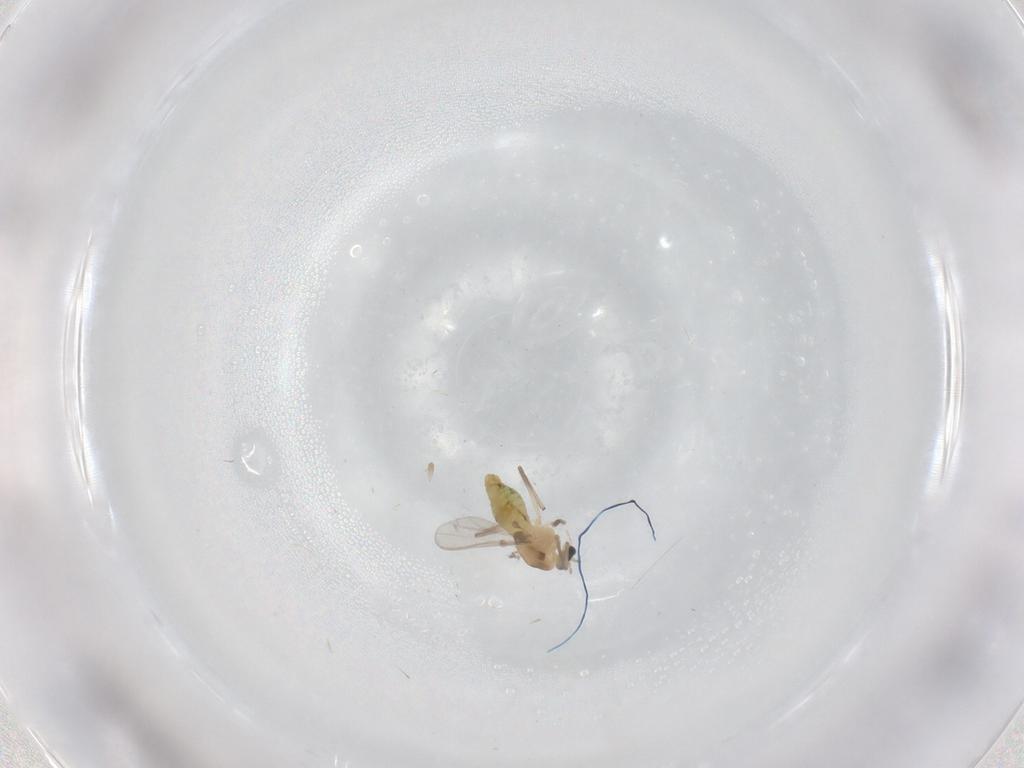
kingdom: Animalia
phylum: Arthropoda
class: Insecta
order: Diptera
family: Chironomidae
